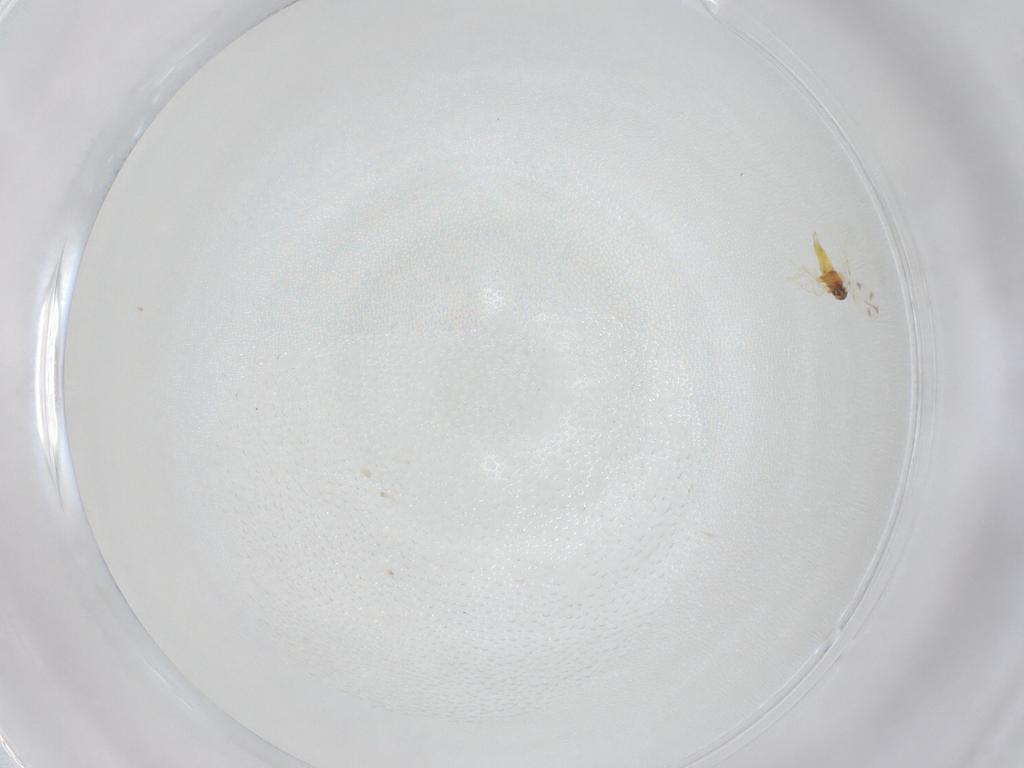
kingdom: Animalia
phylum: Arthropoda
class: Insecta
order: Hemiptera
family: Aleyrodidae
